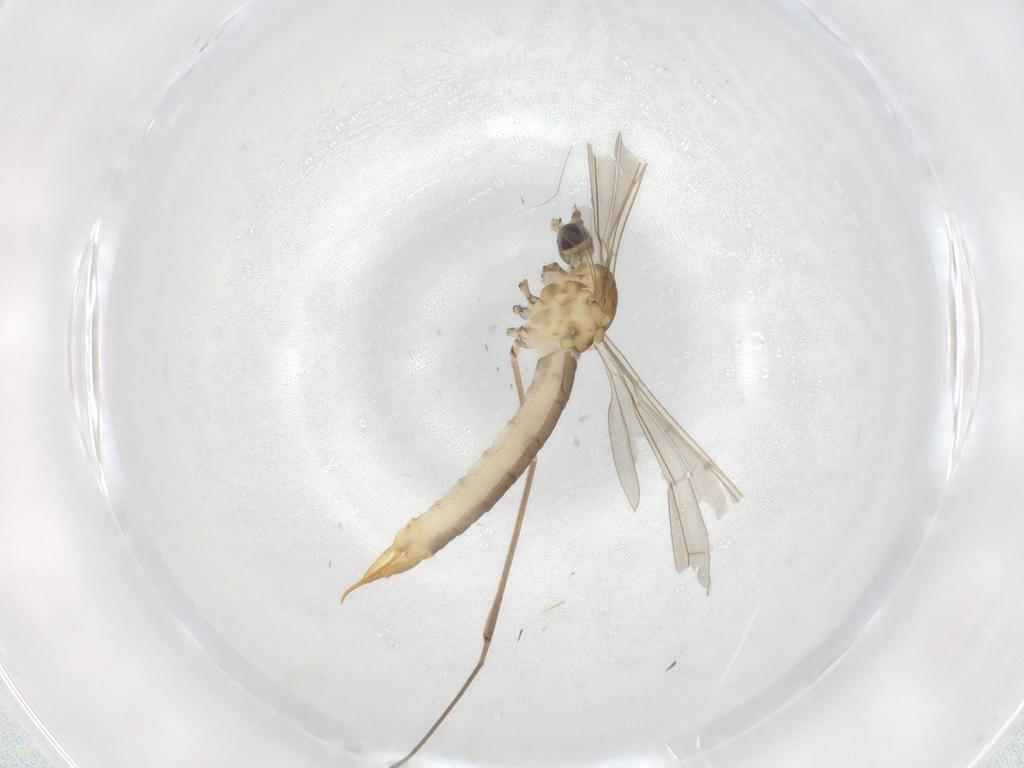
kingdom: Animalia
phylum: Arthropoda
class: Insecta
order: Diptera
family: Limoniidae
